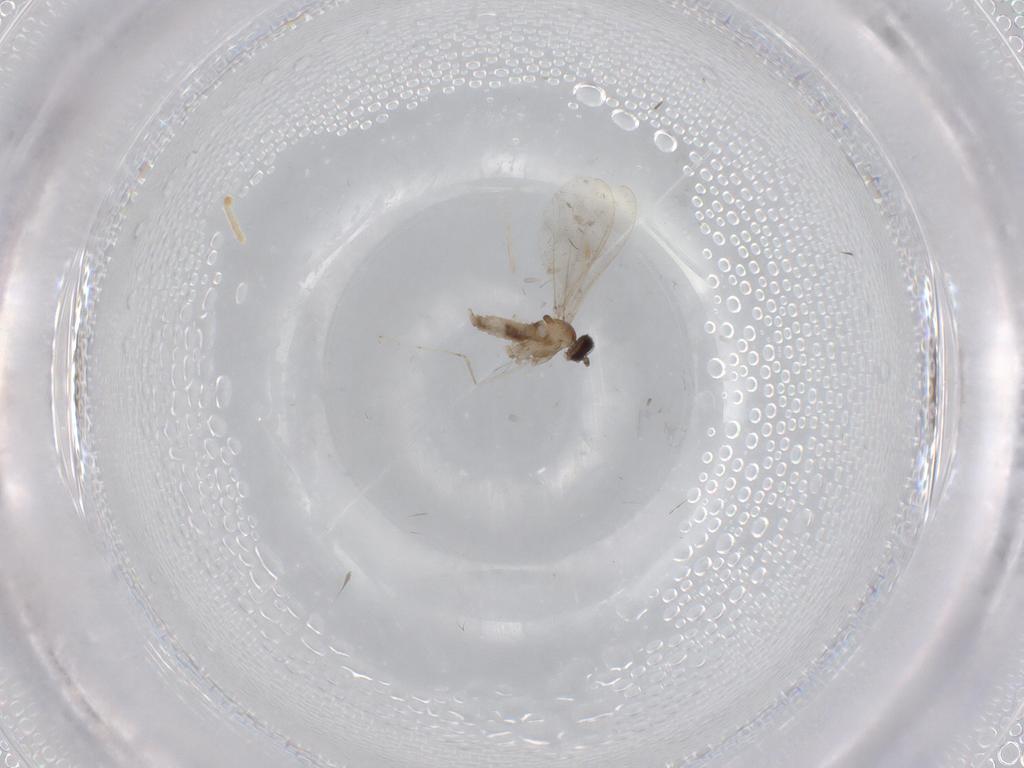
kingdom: Animalia
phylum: Arthropoda
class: Insecta
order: Diptera
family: Cecidomyiidae
